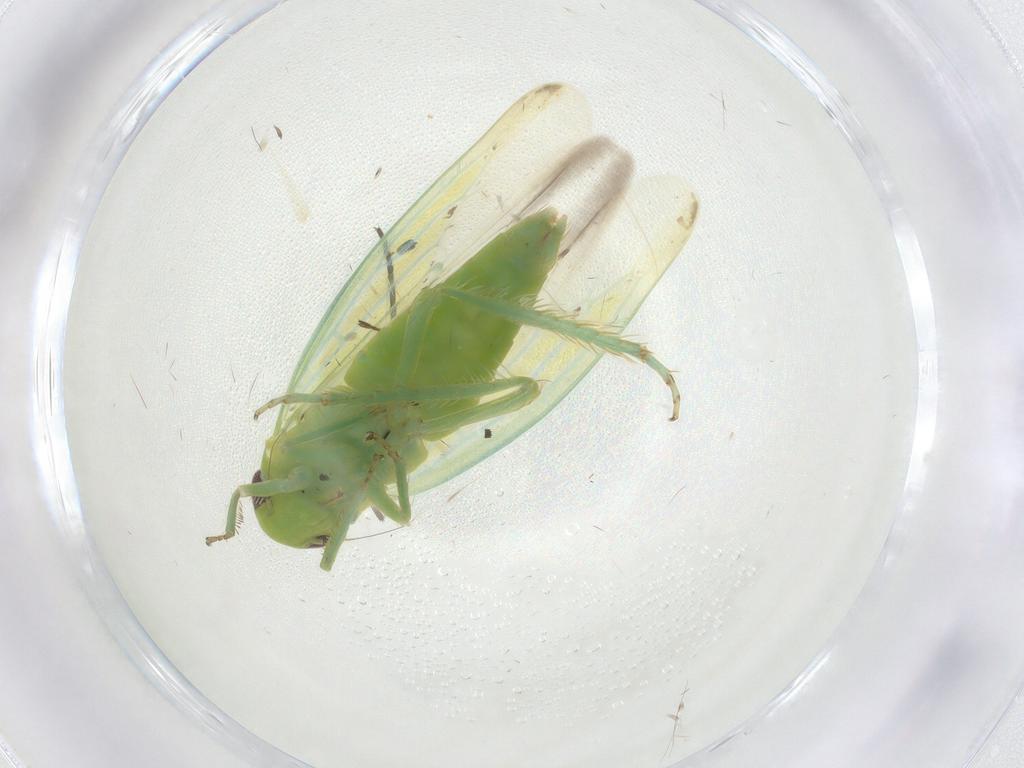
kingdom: Animalia
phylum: Arthropoda
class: Insecta
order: Hemiptera
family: Cicadellidae
